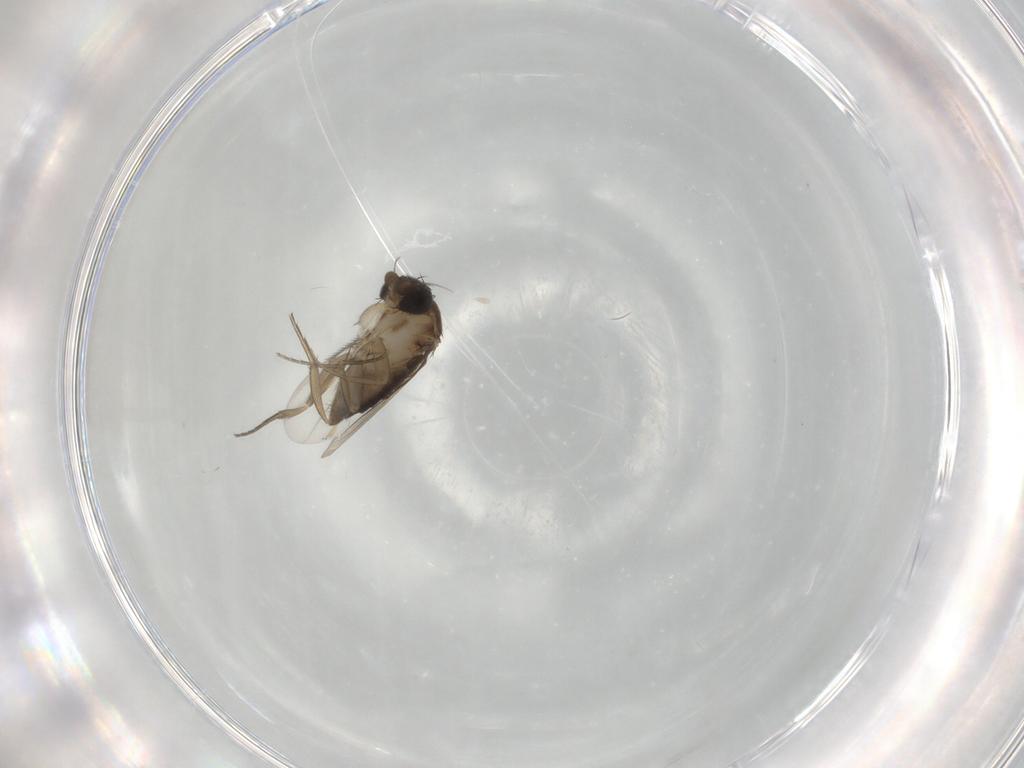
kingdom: Animalia
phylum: Arthropoda
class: Insecta
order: Diptera
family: Phoridae
